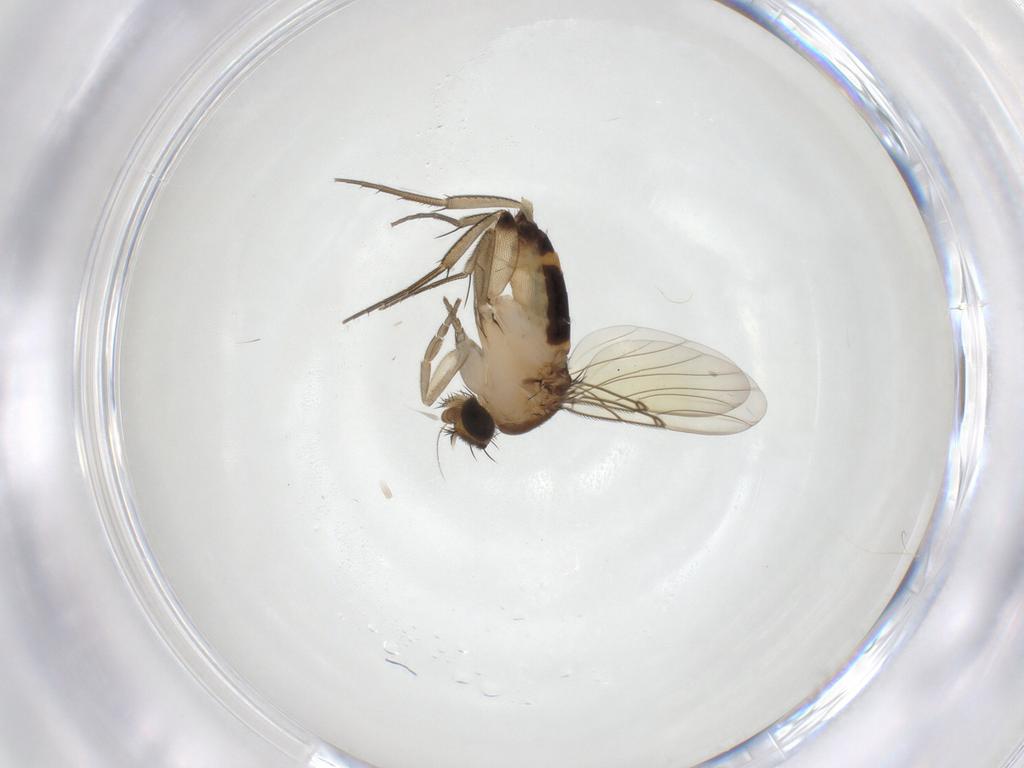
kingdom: Animalia
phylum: Arthropoda
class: Insecta
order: Diptera
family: Phoridae
